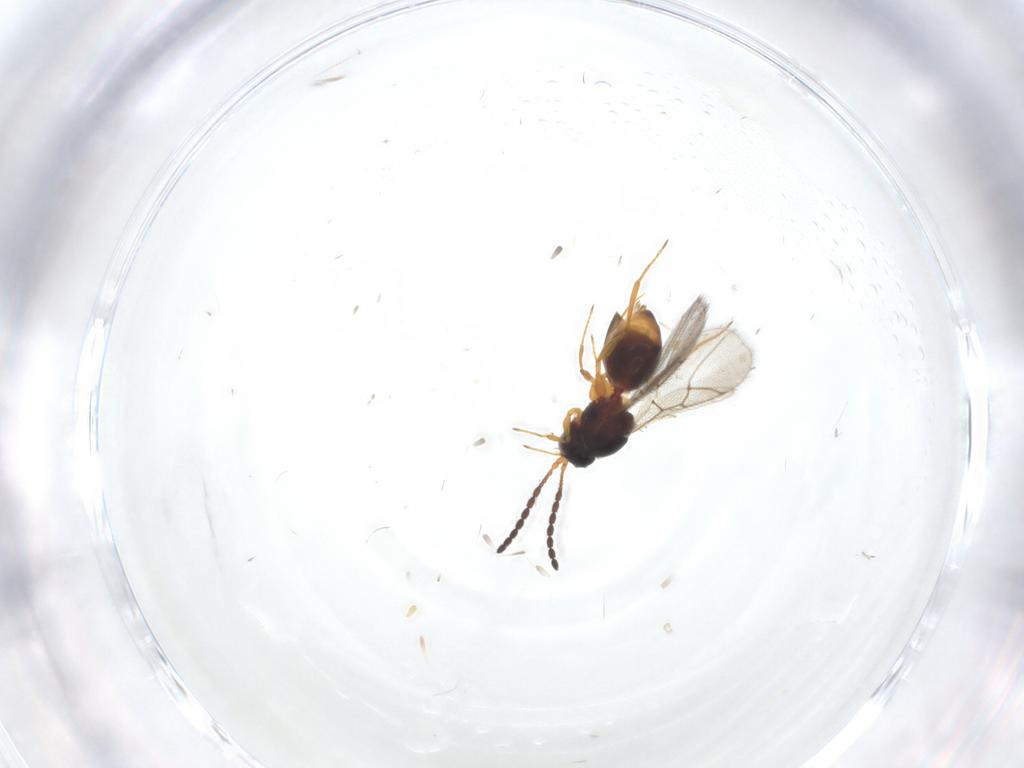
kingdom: Animalia
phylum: Arthropoda
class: Insecta
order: Hymenoptera
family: Figitidae
